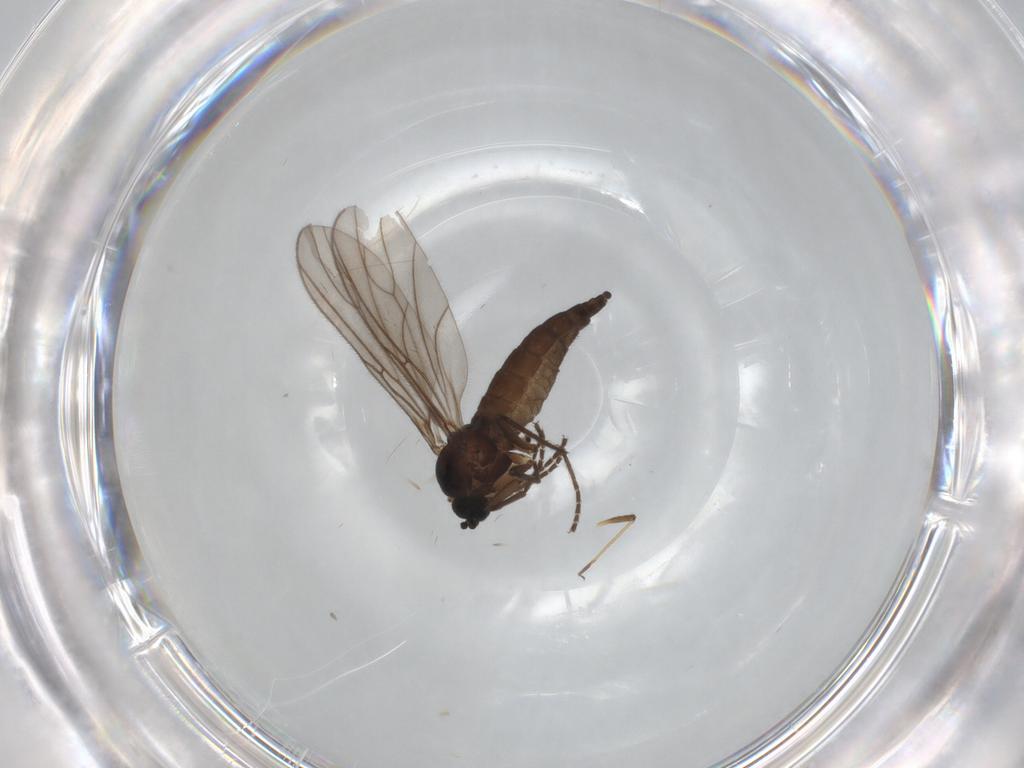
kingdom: Animalia
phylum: Arthropoda
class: Insecta
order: Diptera
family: Sciaridae
